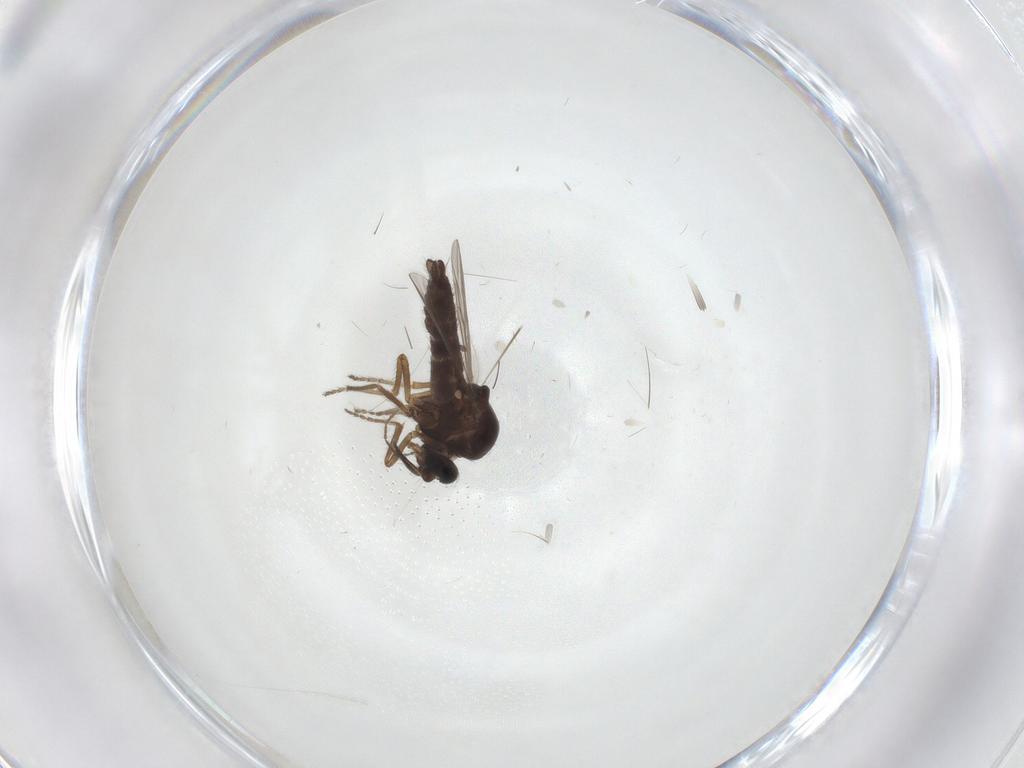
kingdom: Animalia
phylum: Arthropoda
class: Insecta
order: Diptera
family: Ceratopogonidae
